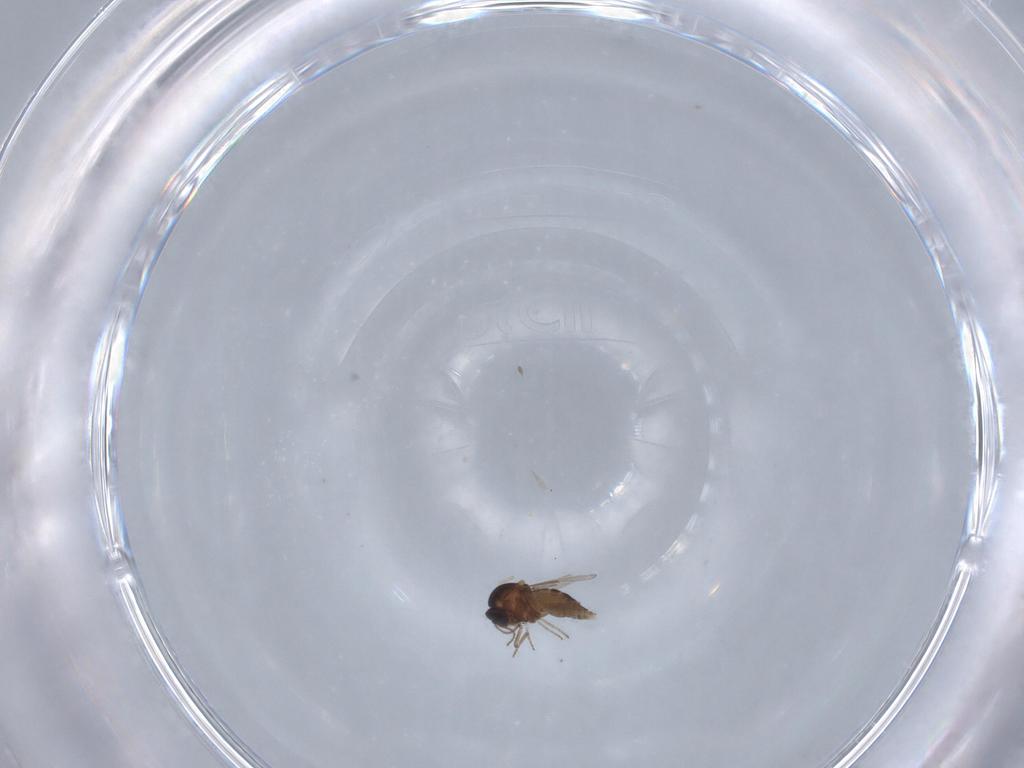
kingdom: Animalia
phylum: Arthropoda
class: Insecta
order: Diptera
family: Ceratopogonidae
